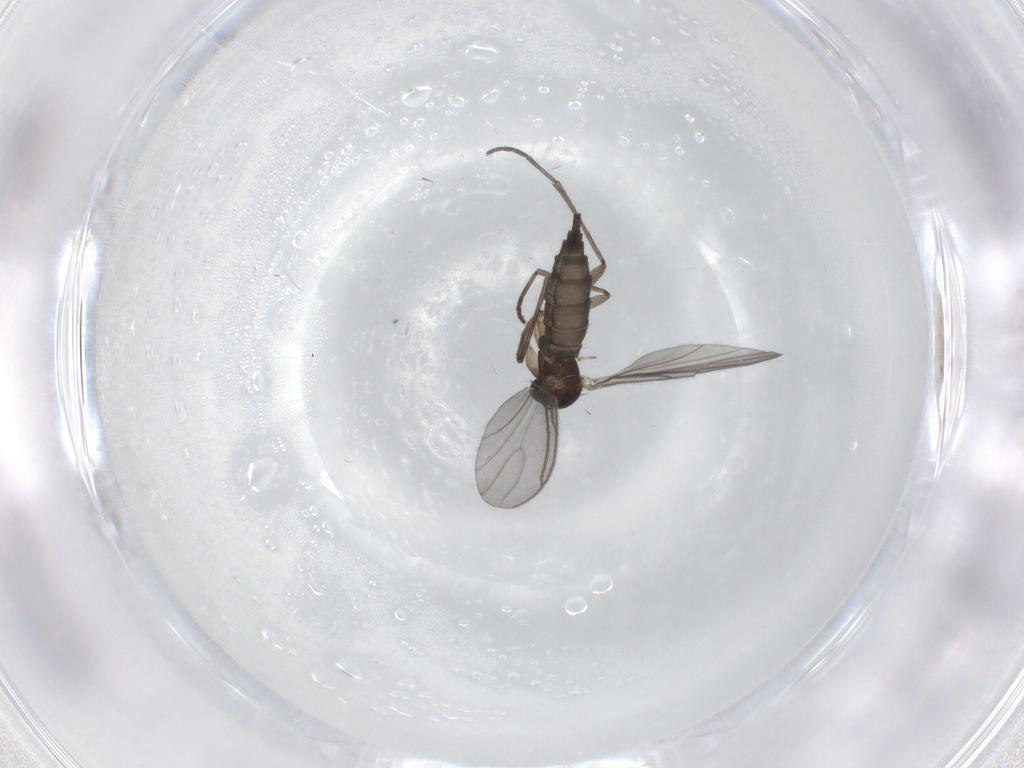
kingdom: Animalia
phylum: Arthropoda
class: Insecta
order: Diptera
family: Sciaridae
